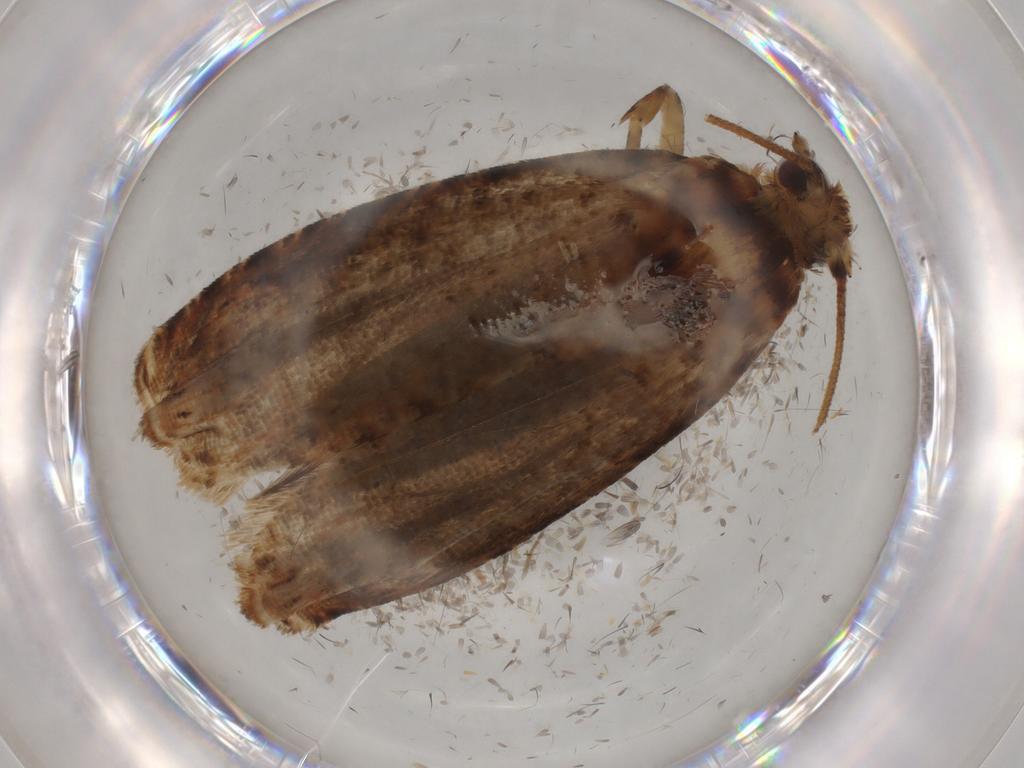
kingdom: Animalia
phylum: Arthropoda
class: Insecta
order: Lepidoptera
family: Tortricidae
